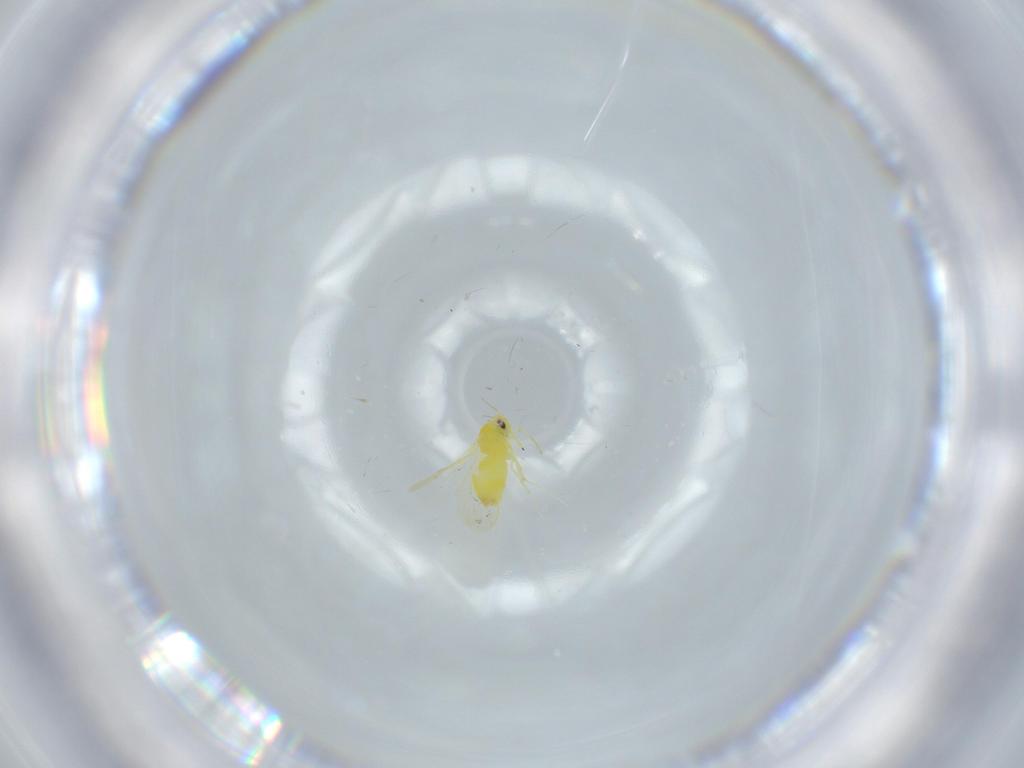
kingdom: Animalia
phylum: Arthropoda
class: Insecta
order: Hemiptera
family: Aleyrodidae
